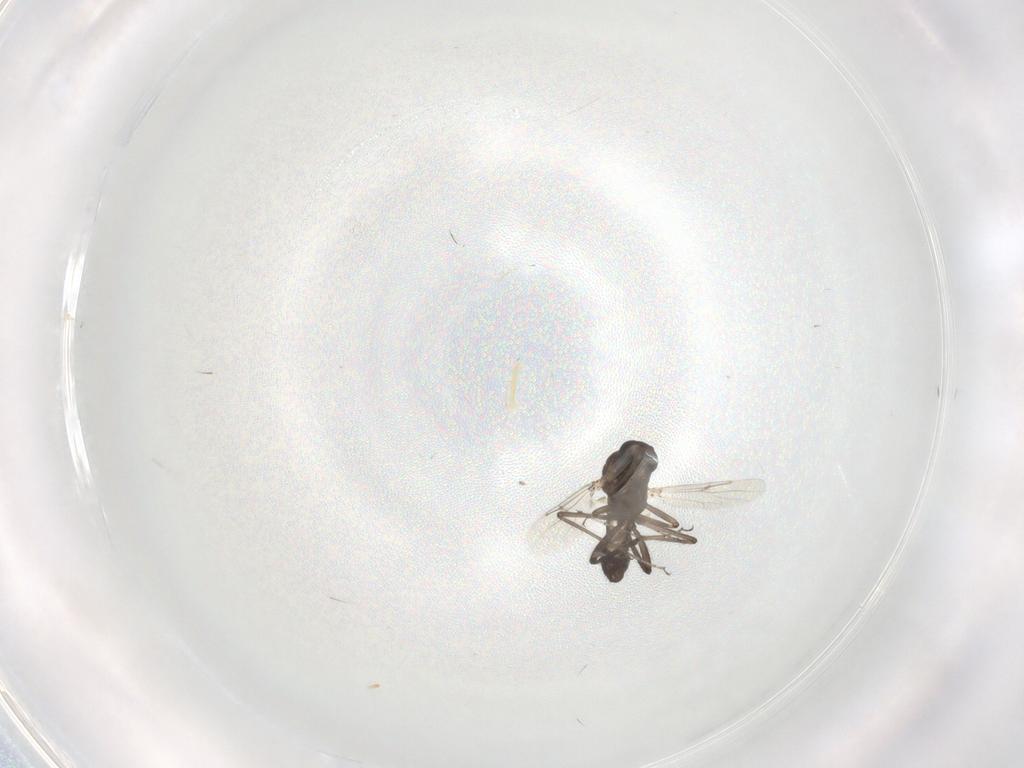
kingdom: Animalia
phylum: Arthropoda
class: Insecta
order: Diptera
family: Ceratopogonidae
